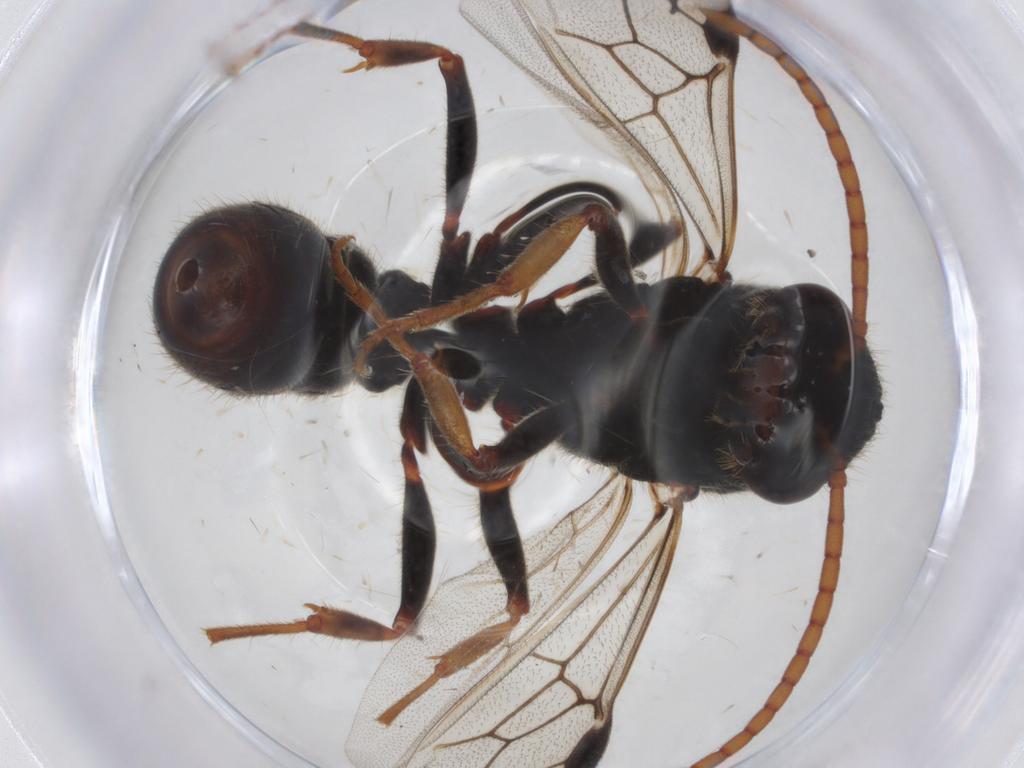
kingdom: Animalia
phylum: Arthropoda
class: Insecta
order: Hymenoptera
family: Formicidae
